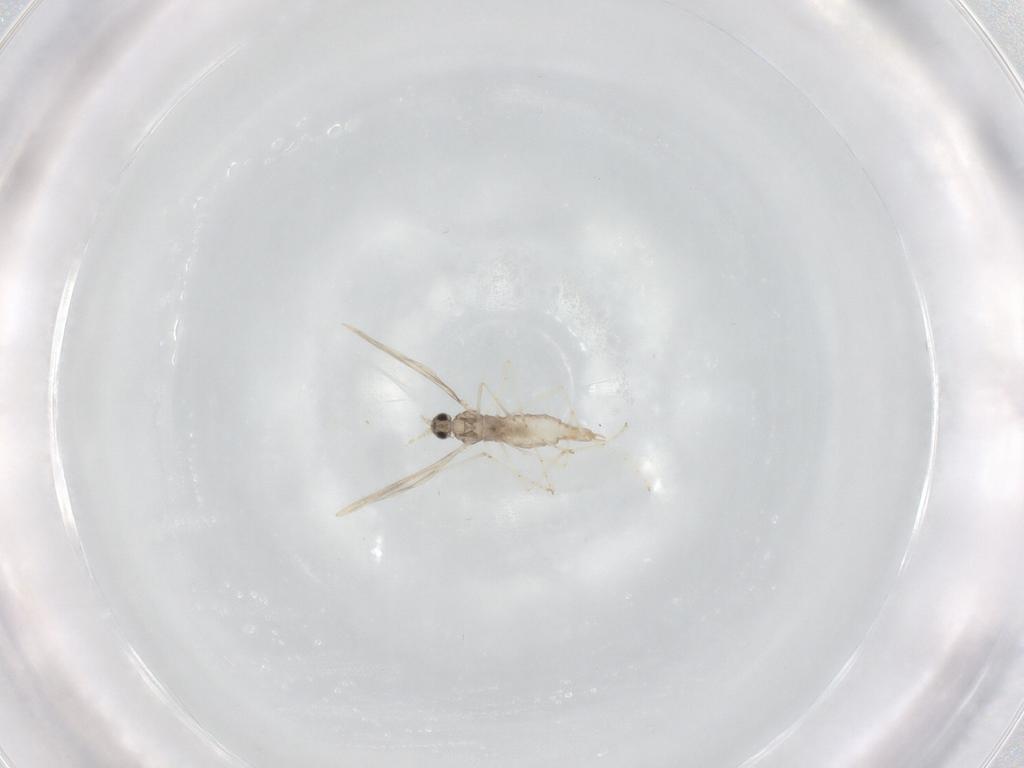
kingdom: Animalia
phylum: Arthropoda
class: Insecta
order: Diptera
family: Cecidomyiidae
